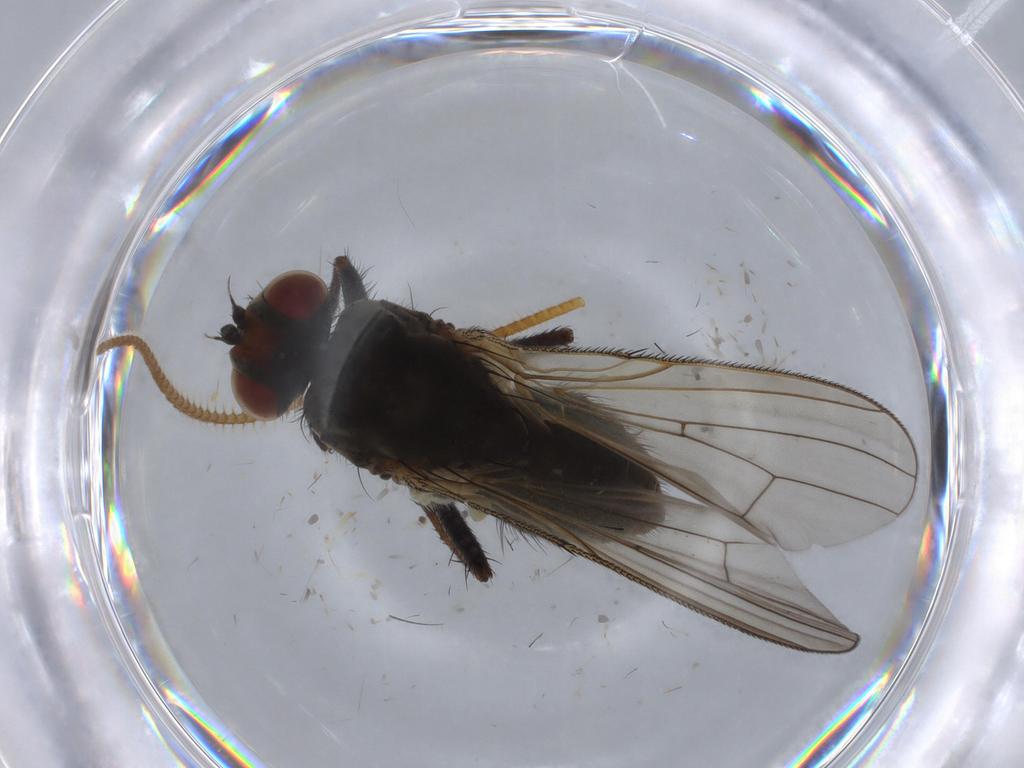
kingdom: Animalia
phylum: Arthropoda
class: Insecta
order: Diptera
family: Anthomyiidae
